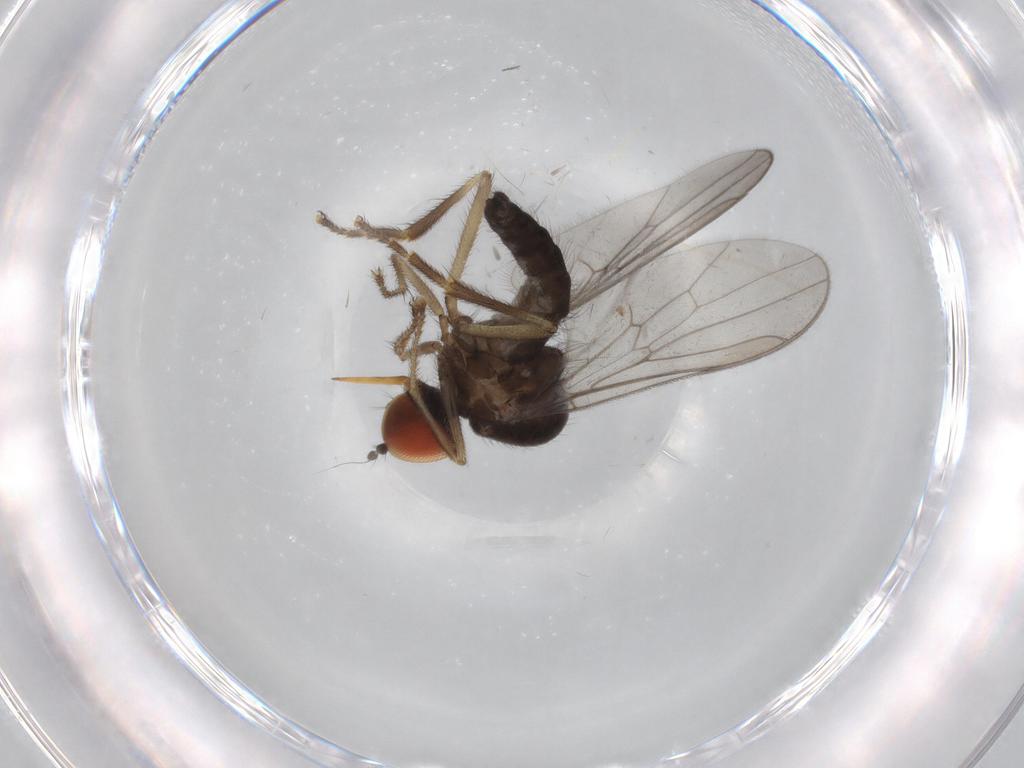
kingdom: Animalia
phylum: Arthropoda
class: Insecta
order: Diptera
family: Hybotidae
